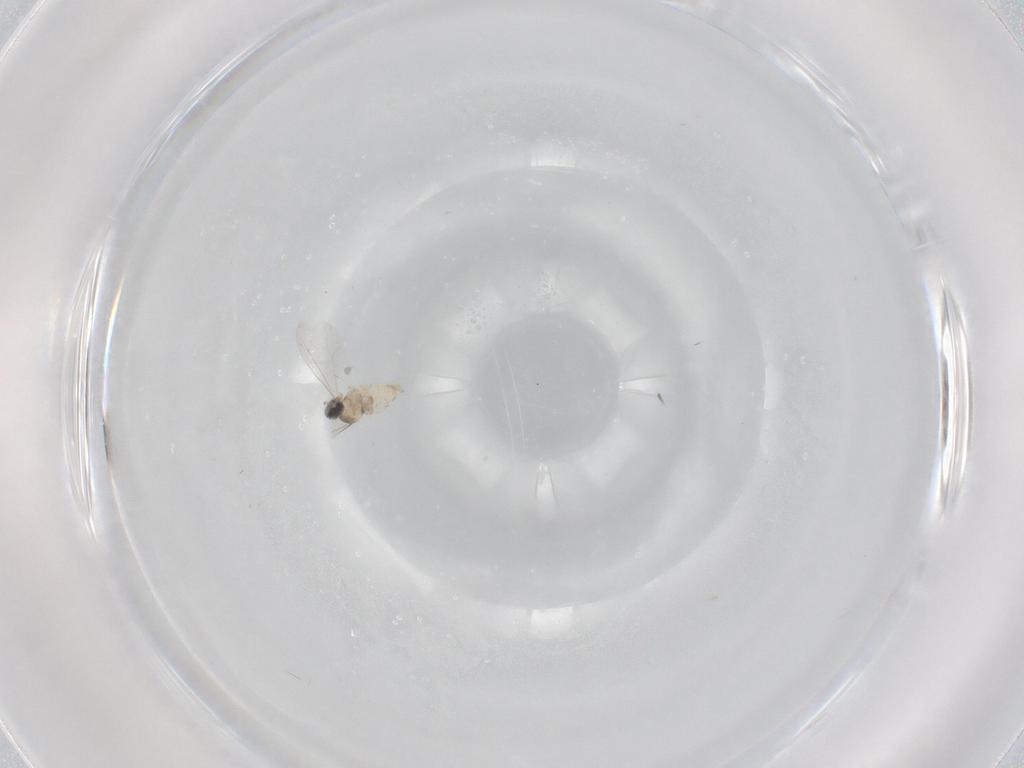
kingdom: Animalia
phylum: Arthropoda
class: Insecta
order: Diptera
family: Cecidomyiidae
